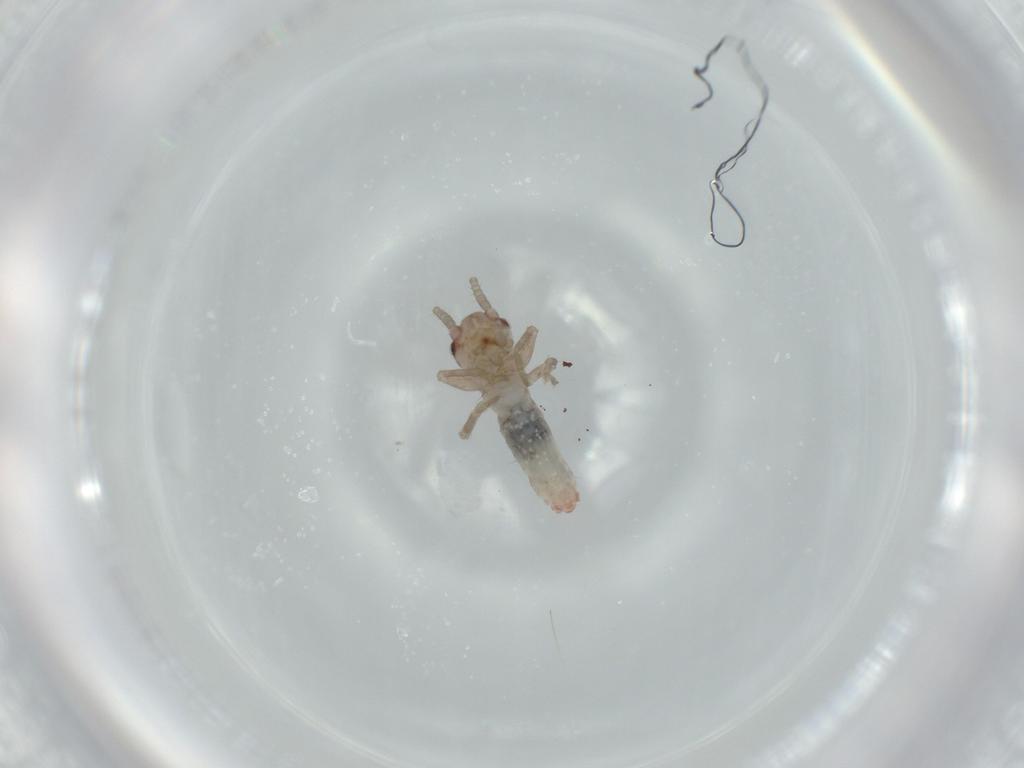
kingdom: Animalia
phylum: Arthropoda
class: Insecta
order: Orthoptera
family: Mogoplistidae
